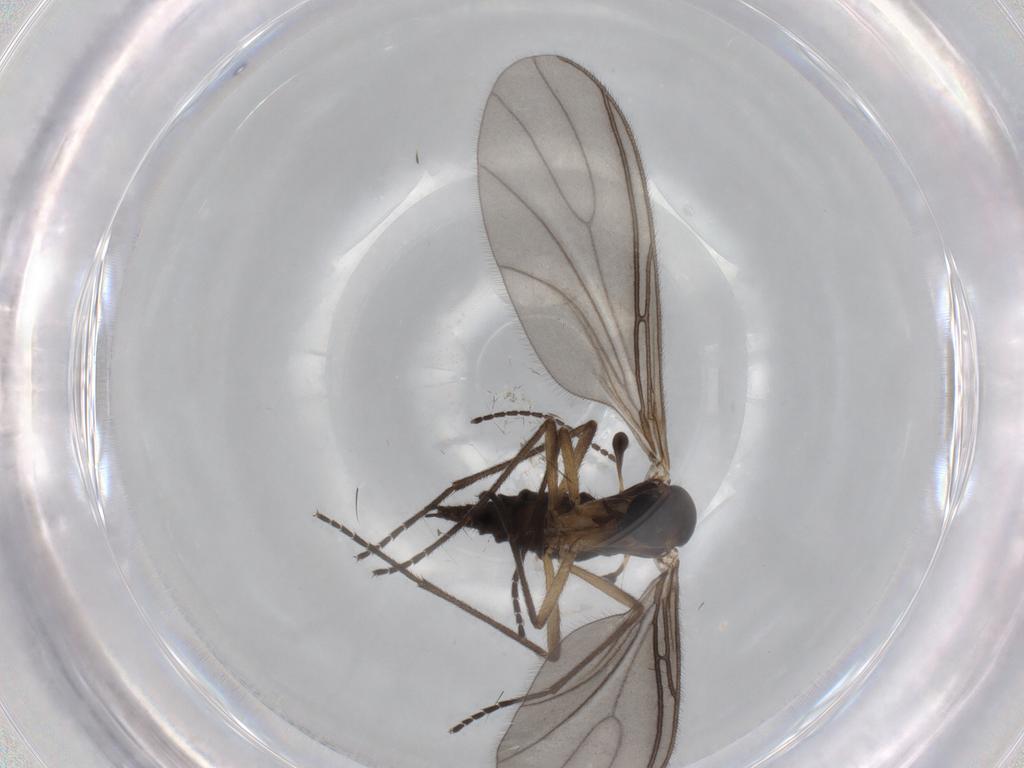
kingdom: Animalia
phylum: Arthropoda
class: Insecta
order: Diptera
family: Sciaridae
